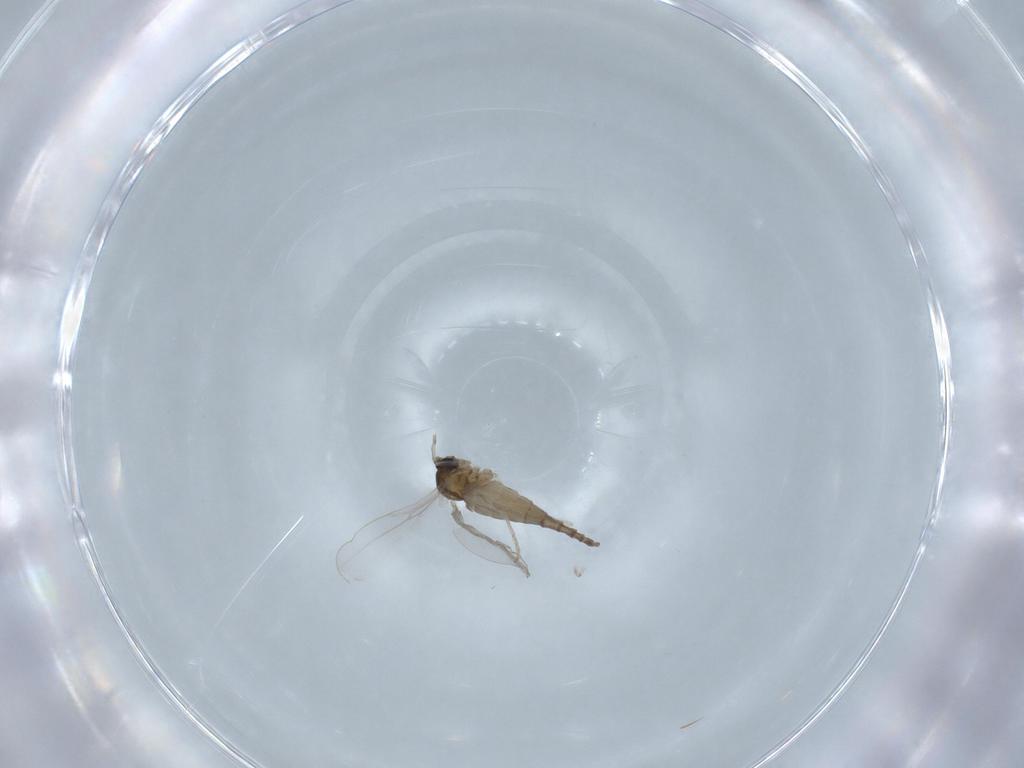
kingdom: Animalia
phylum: Arthropoda
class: Insecta
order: Diptera
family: Cecidomyiidae
